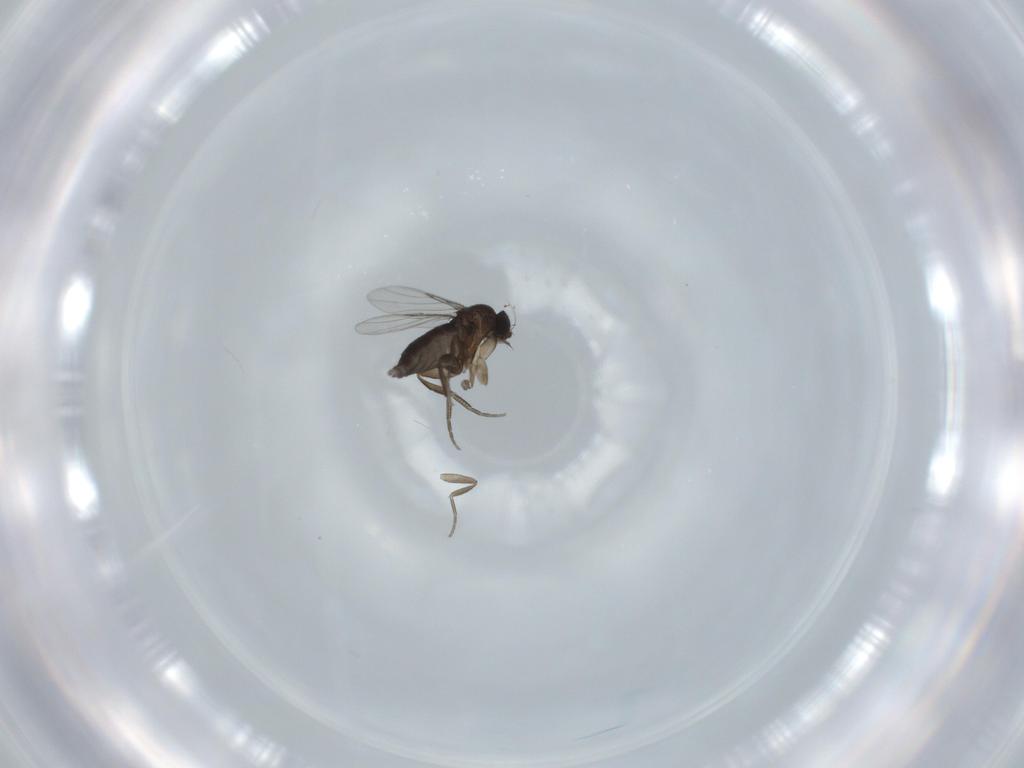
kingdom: Animalia
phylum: Arthropoda
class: Insecta
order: Diptera
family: Phoridae
